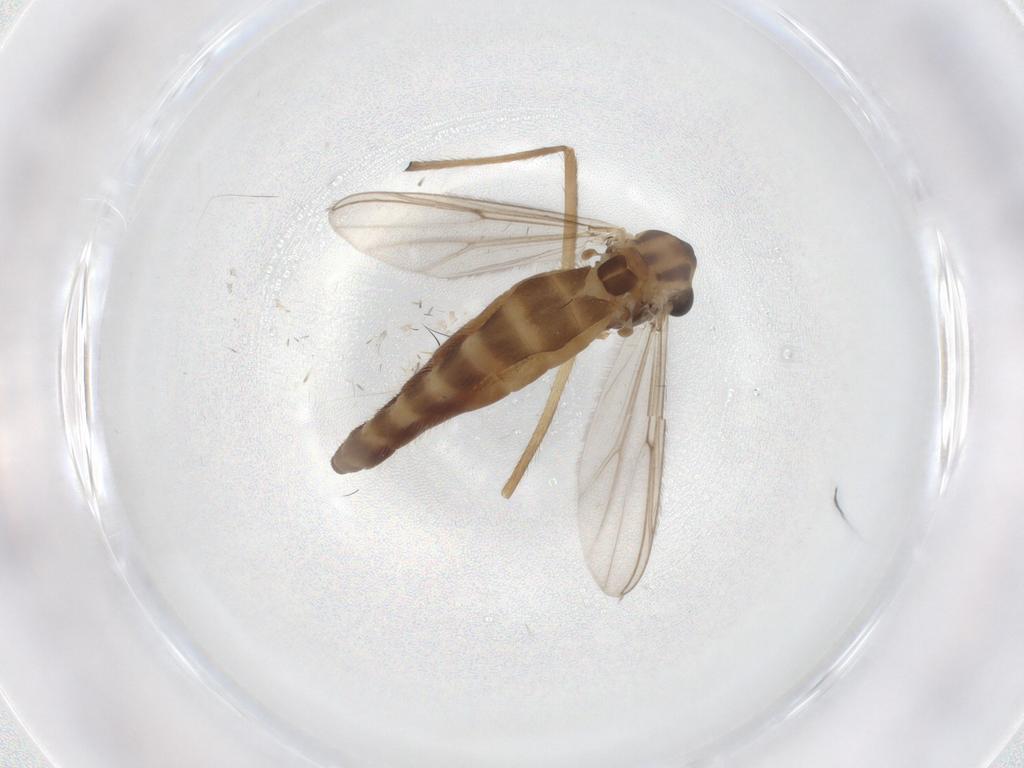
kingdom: Animalia
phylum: Arthropoda
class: Insecta
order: Diptera
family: Chironomidae
